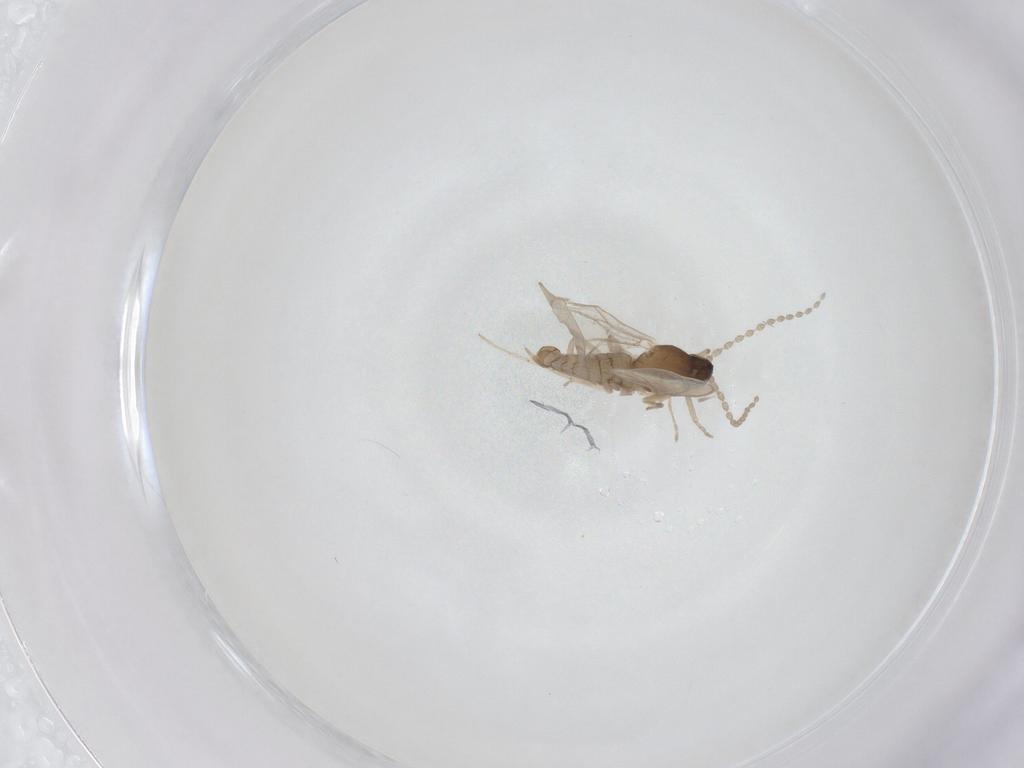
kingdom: Animalia
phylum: Arthropoda
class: Insecta
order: Diptera
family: Cecidomyiidae
